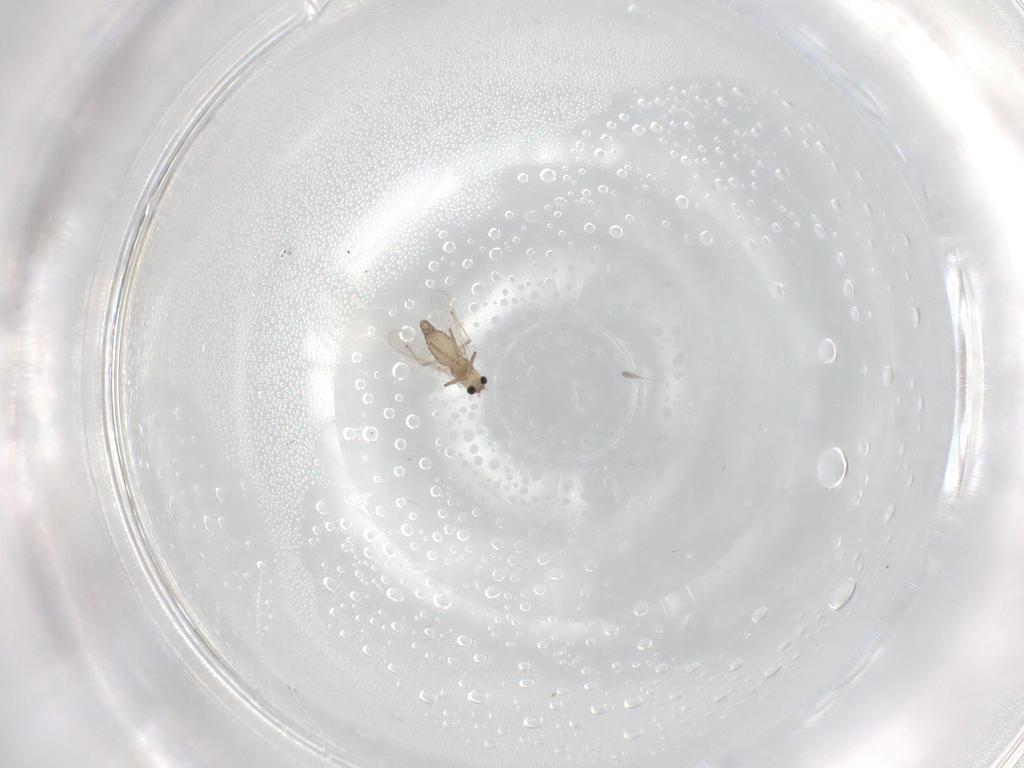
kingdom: Animalia
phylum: Arthropoda
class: Insecta
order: Diptera
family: Chironomidae
